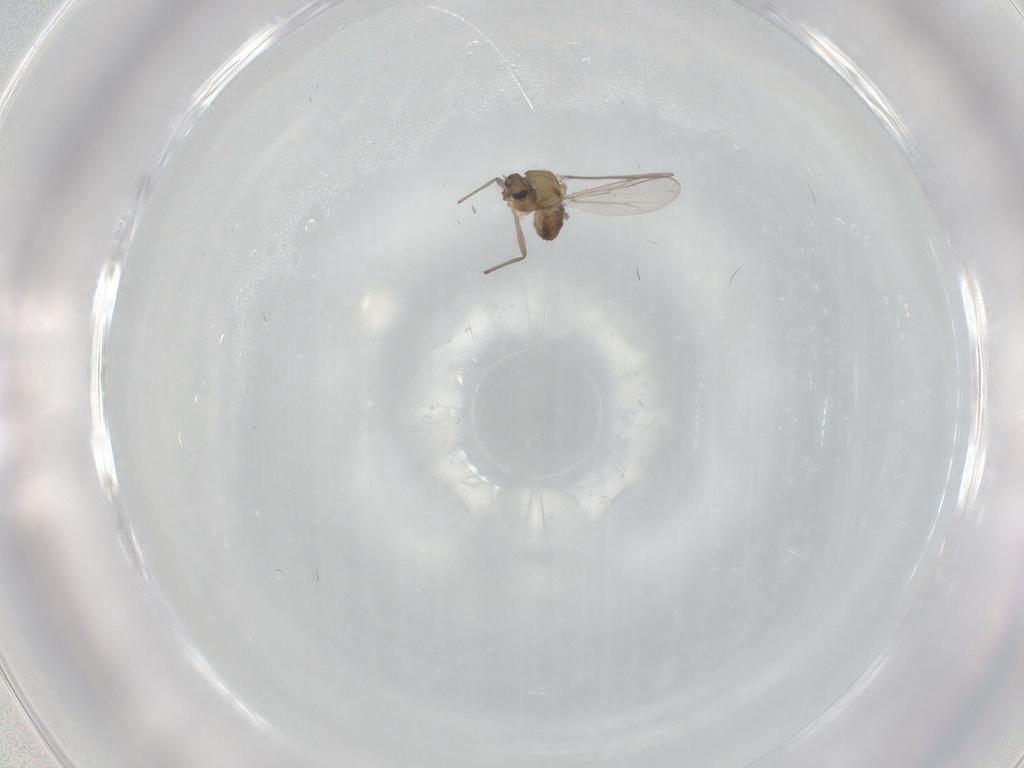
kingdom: Animalia
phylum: Arthropoda
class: Insecta
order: Diptera
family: Chironomidae
